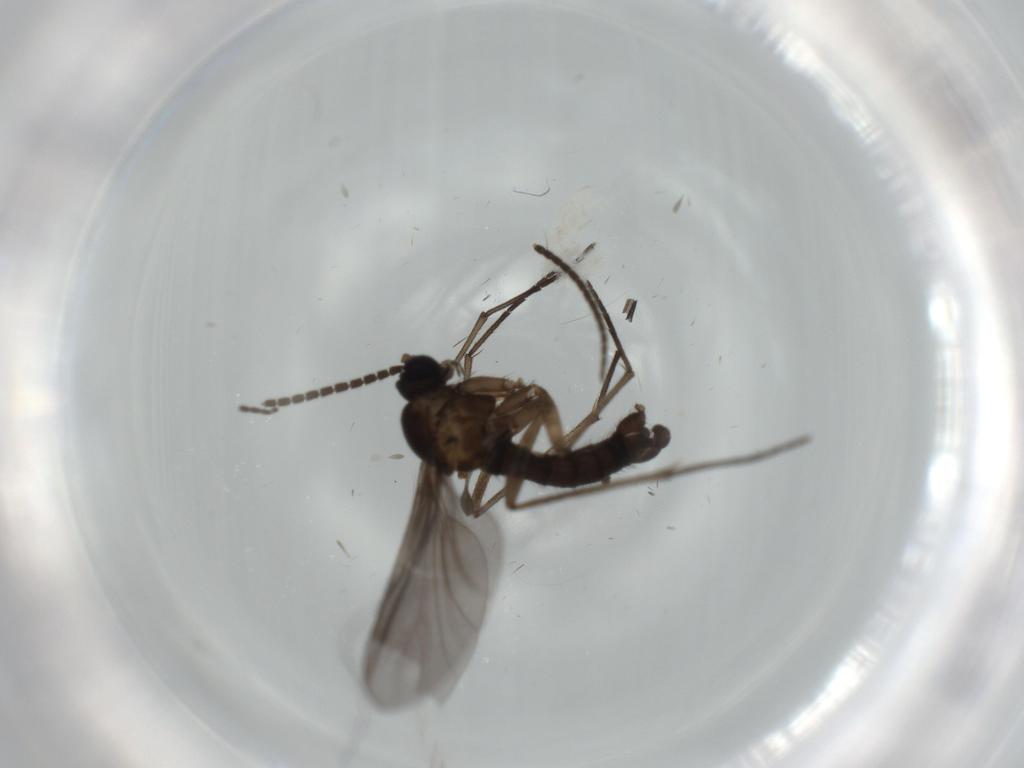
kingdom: Animalia
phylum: Arthropoda
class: Insecta
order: Diptera
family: Sciaridae
